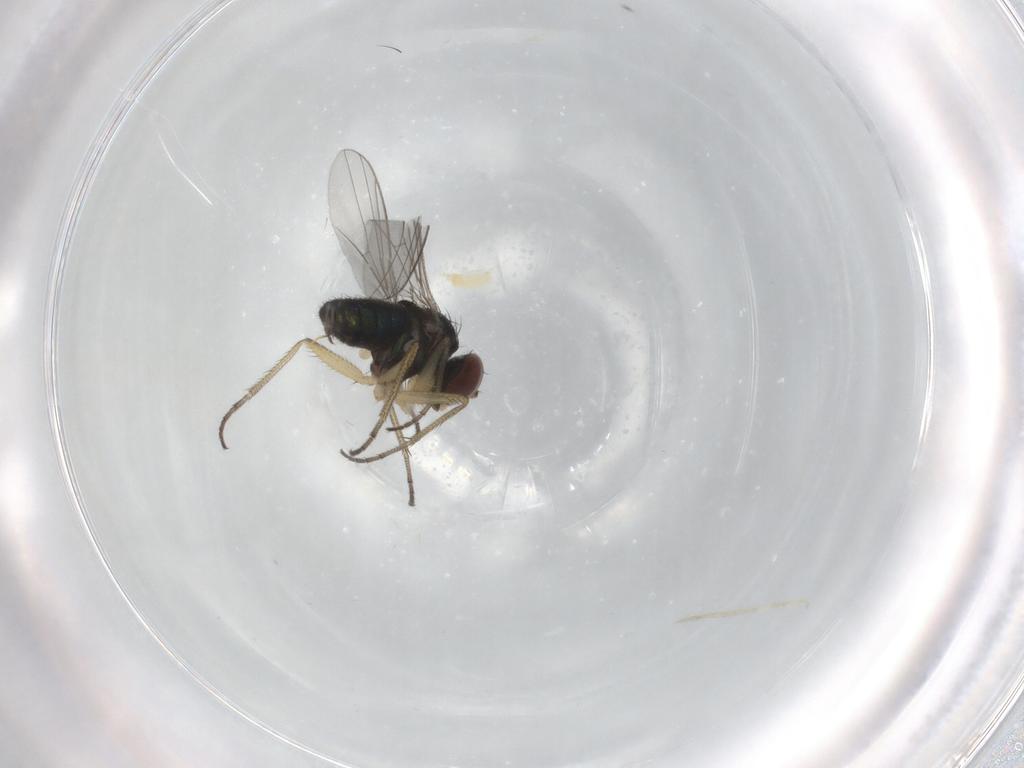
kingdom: Animalia
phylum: Arthropoda
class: Insecta
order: Diptera
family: Dolichopodidae
